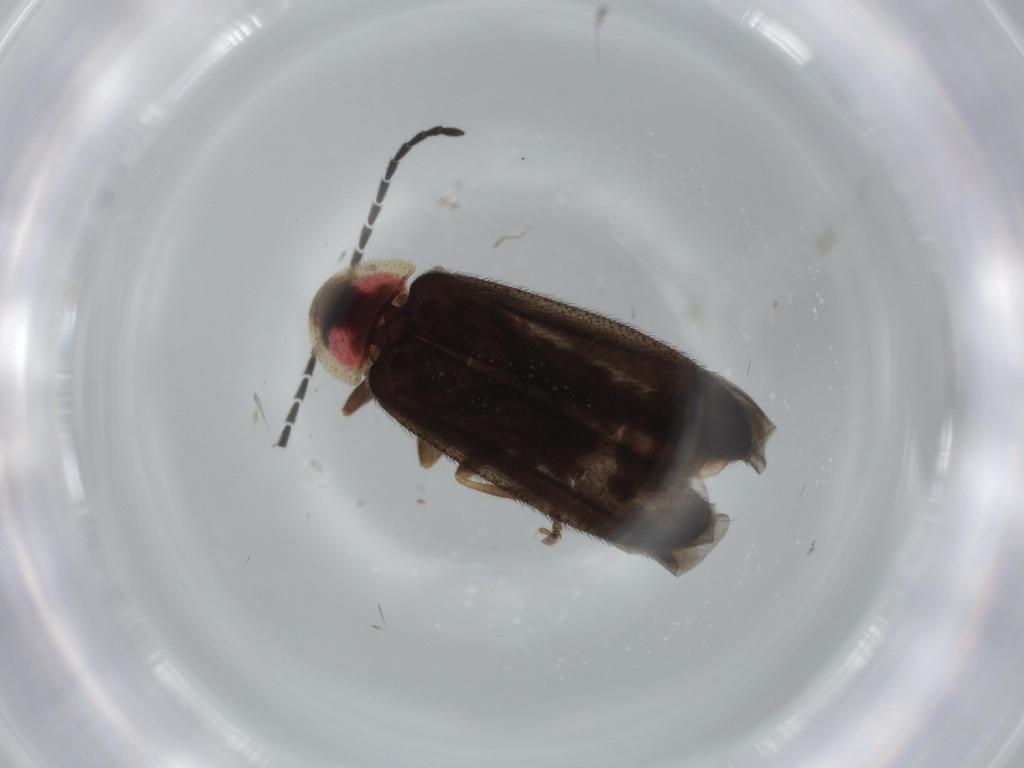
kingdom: Animalia
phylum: Arthropoda
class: Insecta
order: Coleoptera
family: Lampyridae
